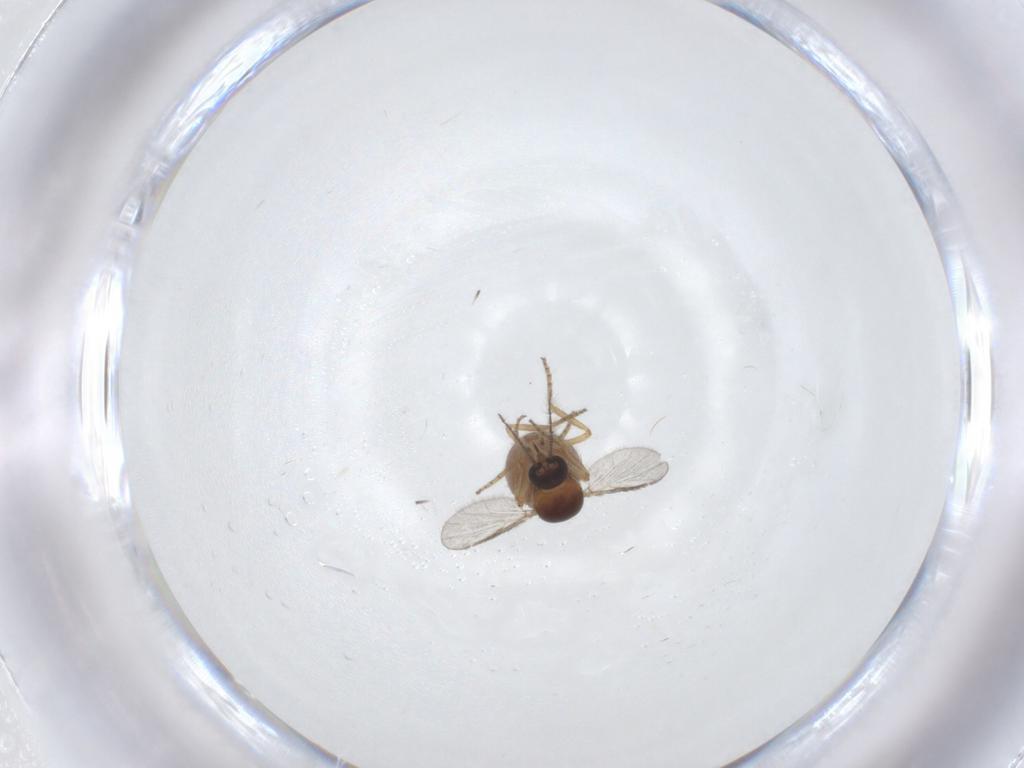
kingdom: Animalia
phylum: Arthropoda
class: Insecta
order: Diptera
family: Ceratopogonidae
